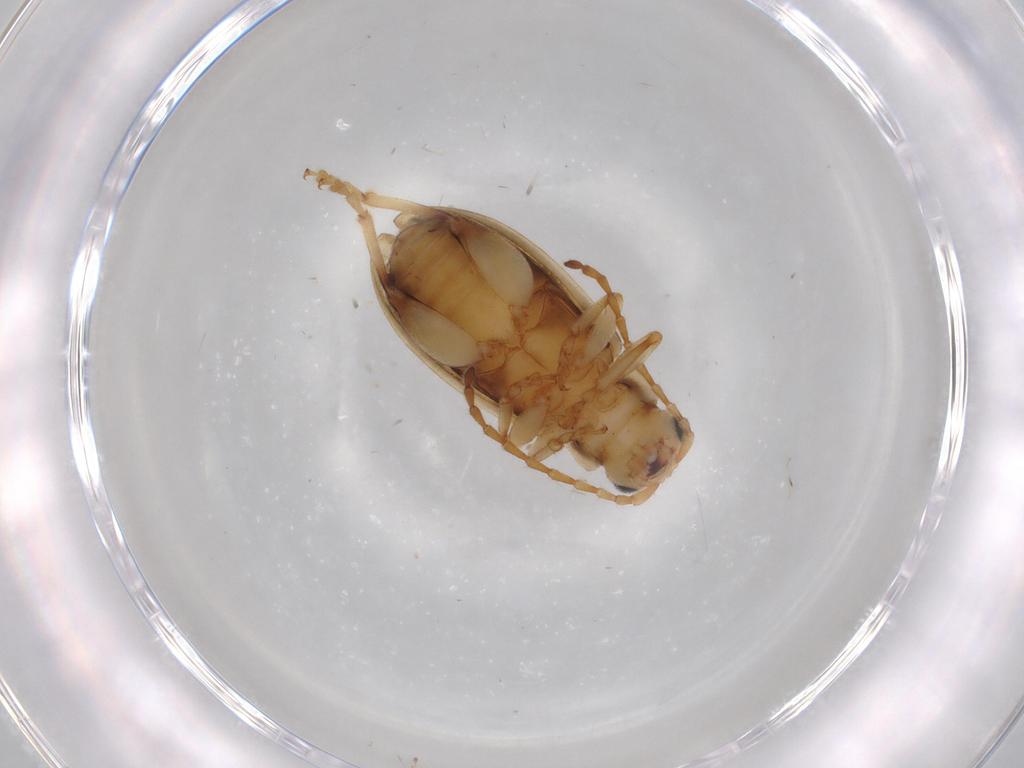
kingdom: Animalia
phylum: Arthropoda
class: Insecta
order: Coleoptera
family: Chrysomelidae
